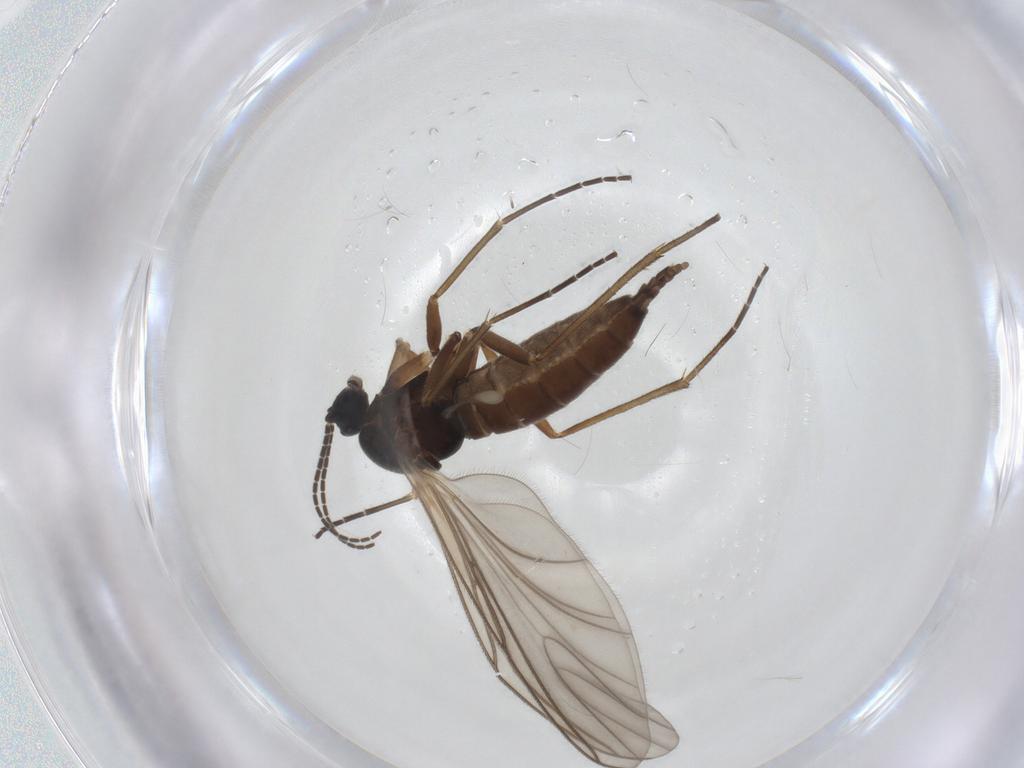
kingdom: Animalia
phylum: Arthropoda
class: Insecta
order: Diptera
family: Sciaridae
